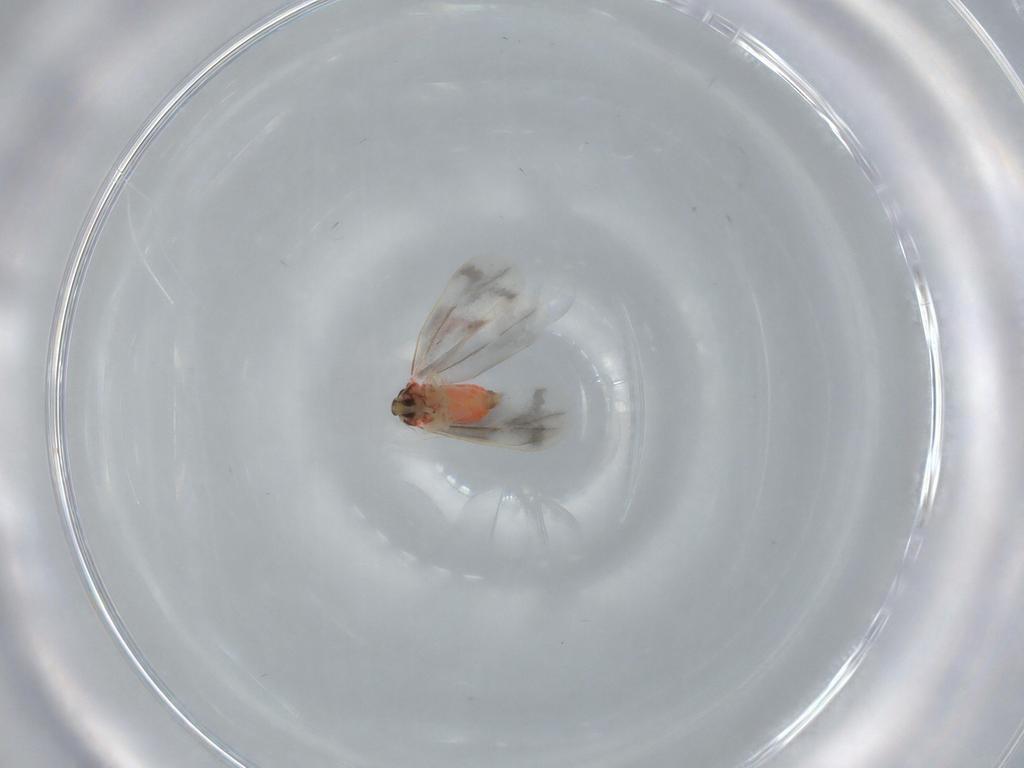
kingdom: Animalia
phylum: Arthropoda
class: Insecta
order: Hemiptera
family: Aleyrodidae
